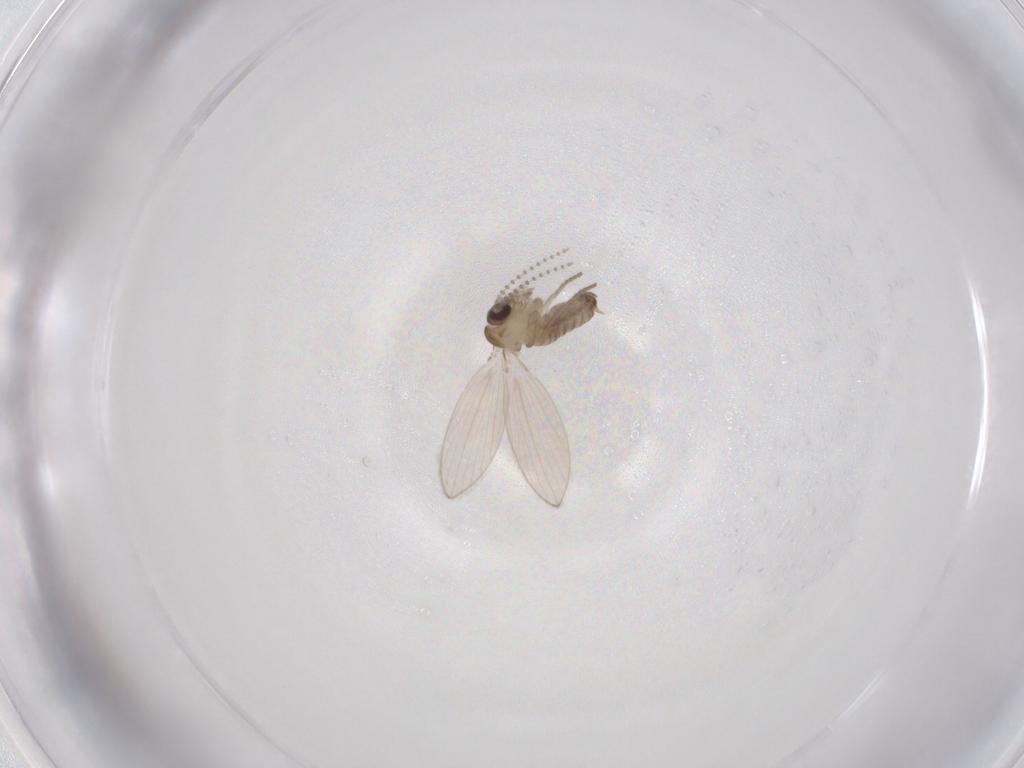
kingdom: Animalia
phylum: Arthropoda
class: Insecta
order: Diptera
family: Psychodidae
